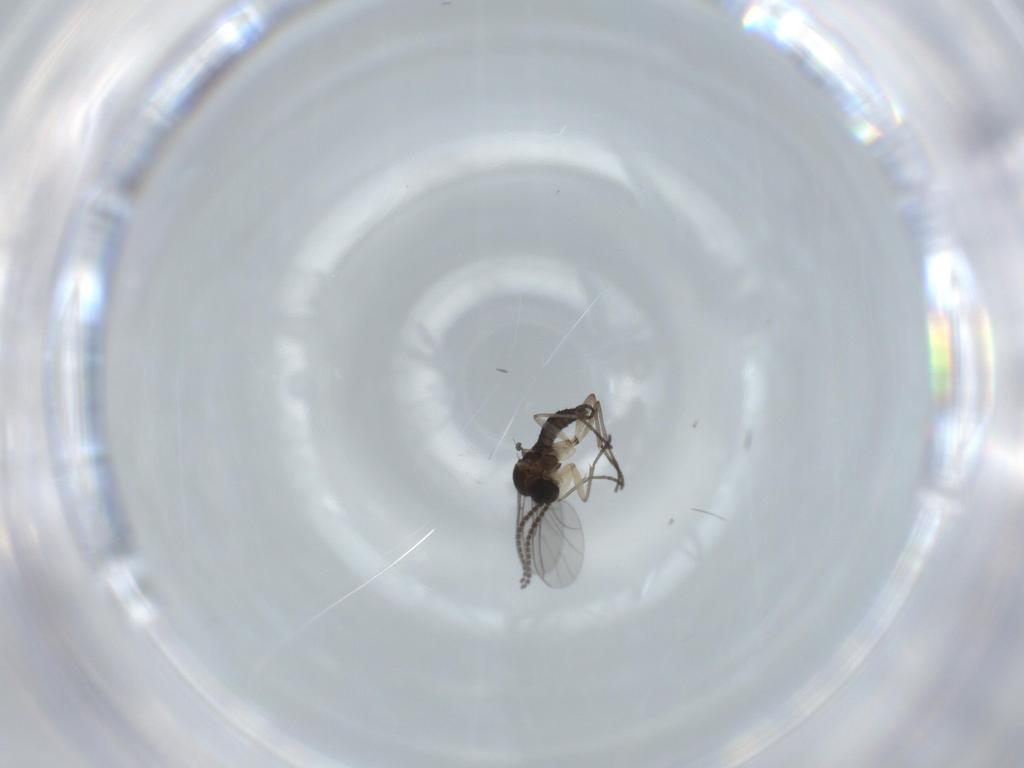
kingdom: Animalia
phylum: Arthropoda
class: Insecta
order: Diptera
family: Sciaridae
